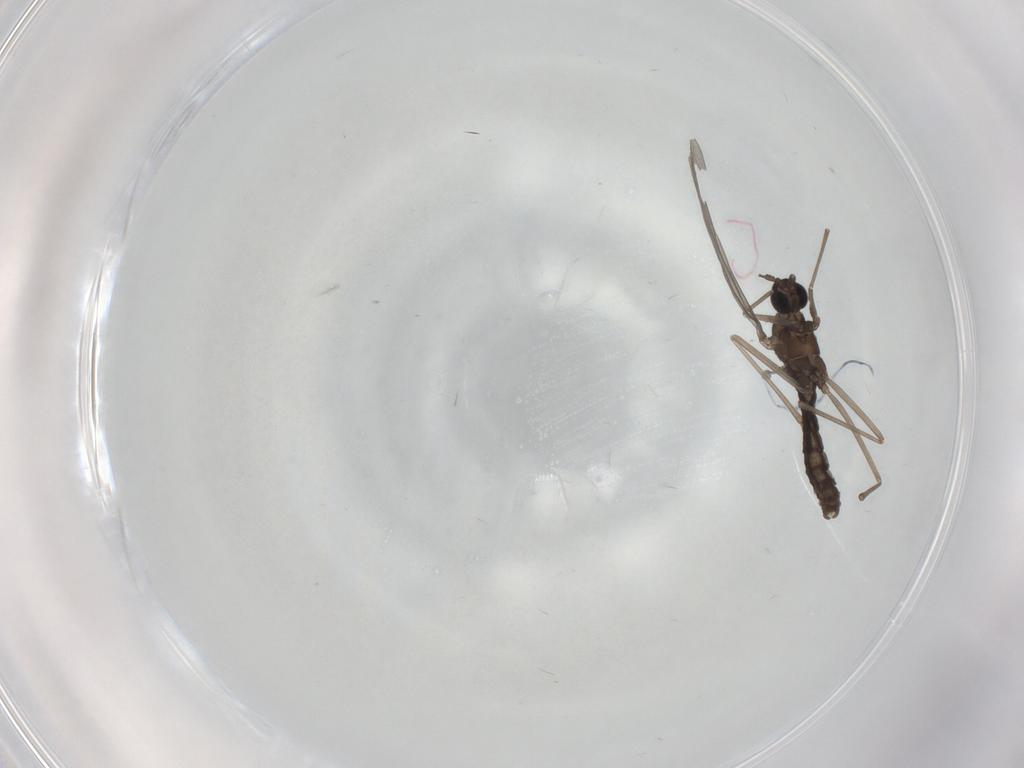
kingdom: Animalia
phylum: Arthropoda
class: Insecta
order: Diptera
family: Cecidomyiidae
